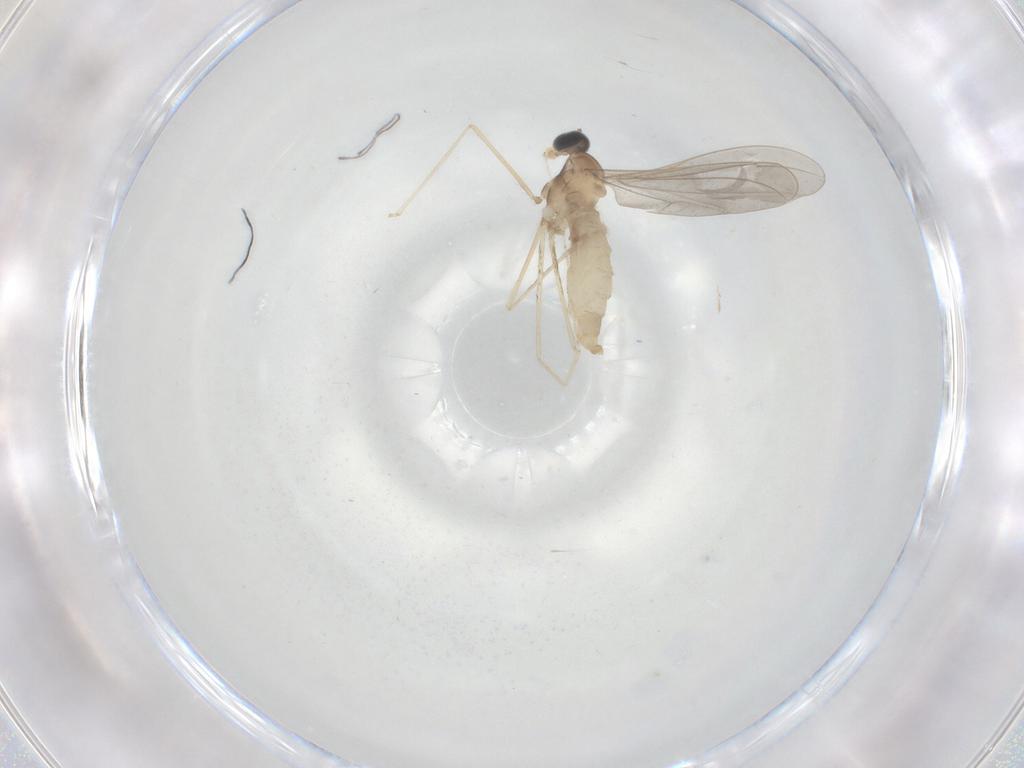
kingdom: Animalia
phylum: Arthropoda
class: Insecta
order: Diptera
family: Cecidomyiidae
